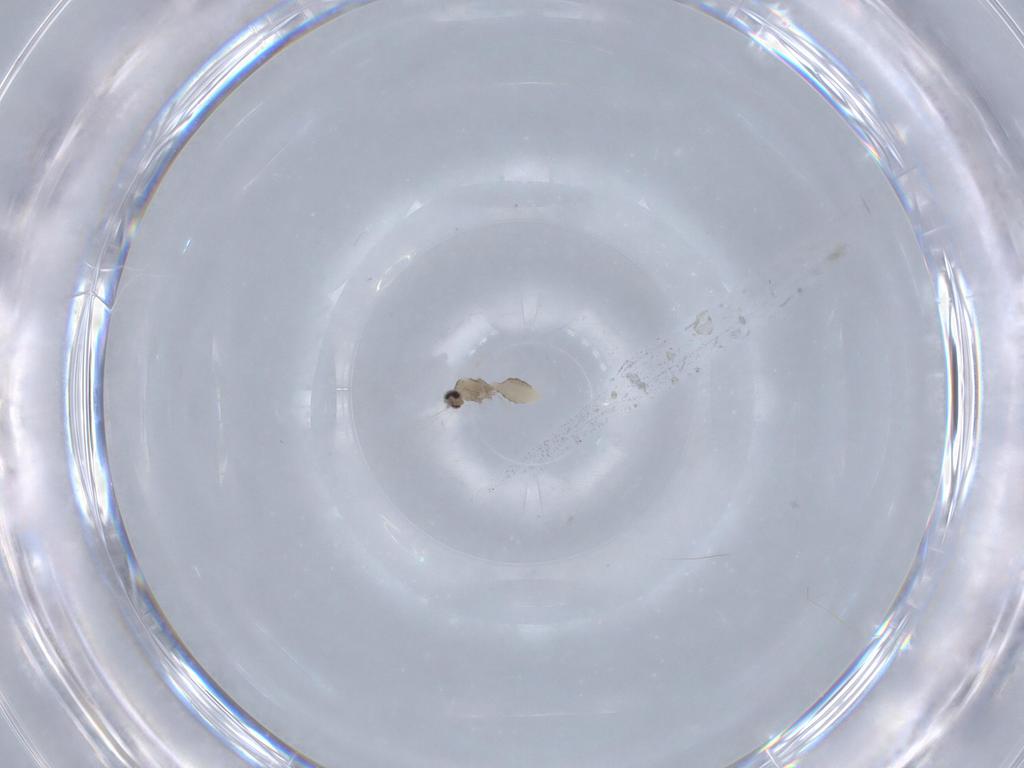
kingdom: Animalia
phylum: Arthropoda
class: Insecta
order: Diptera
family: Cecidomyiidae
